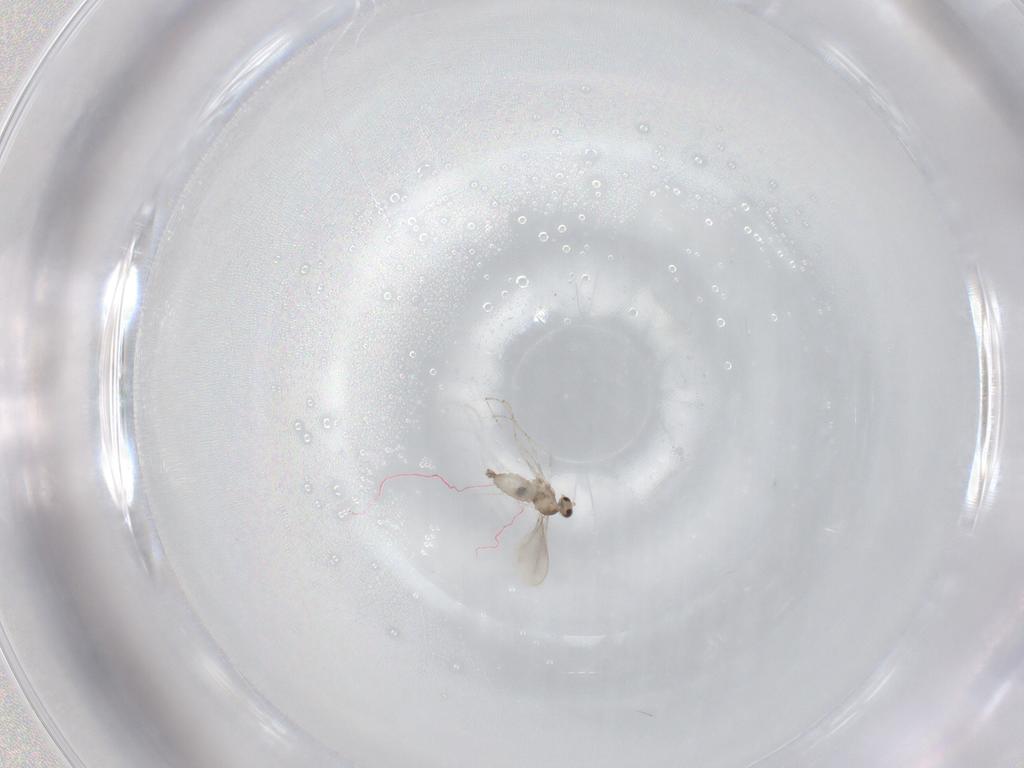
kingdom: Animalia
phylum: Arthropoda
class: Insecta
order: Diptera
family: Cecidomyiidae
